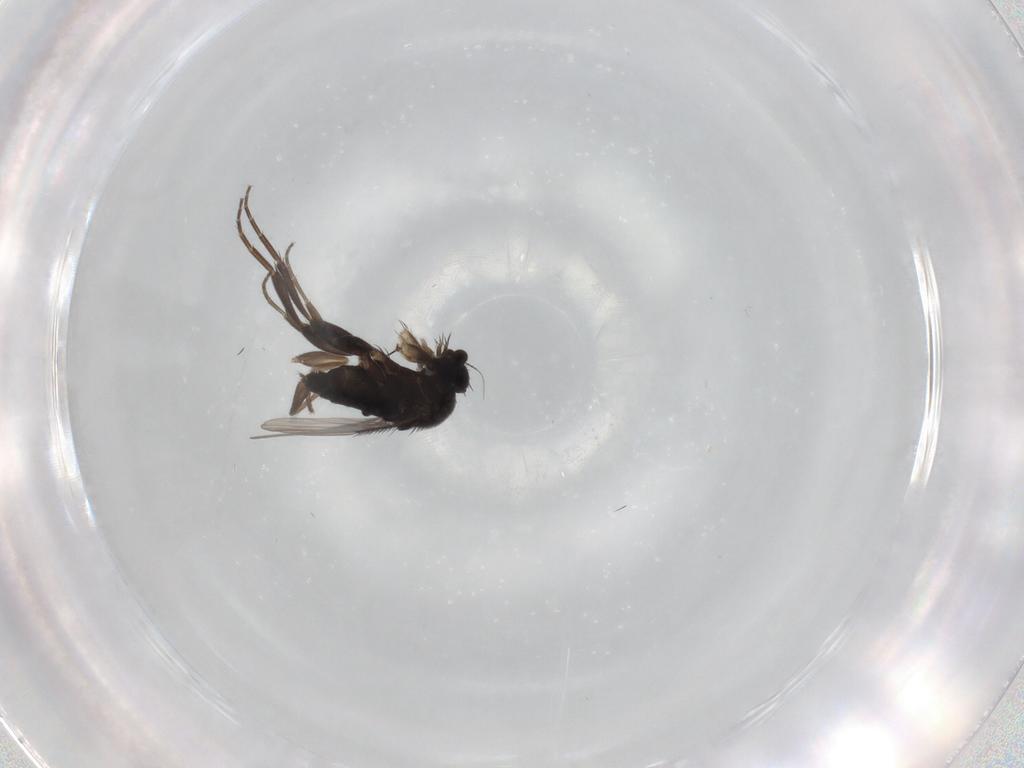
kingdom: Animalia
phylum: Arthropoda
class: Insecta
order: Diptera
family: Phoridae
